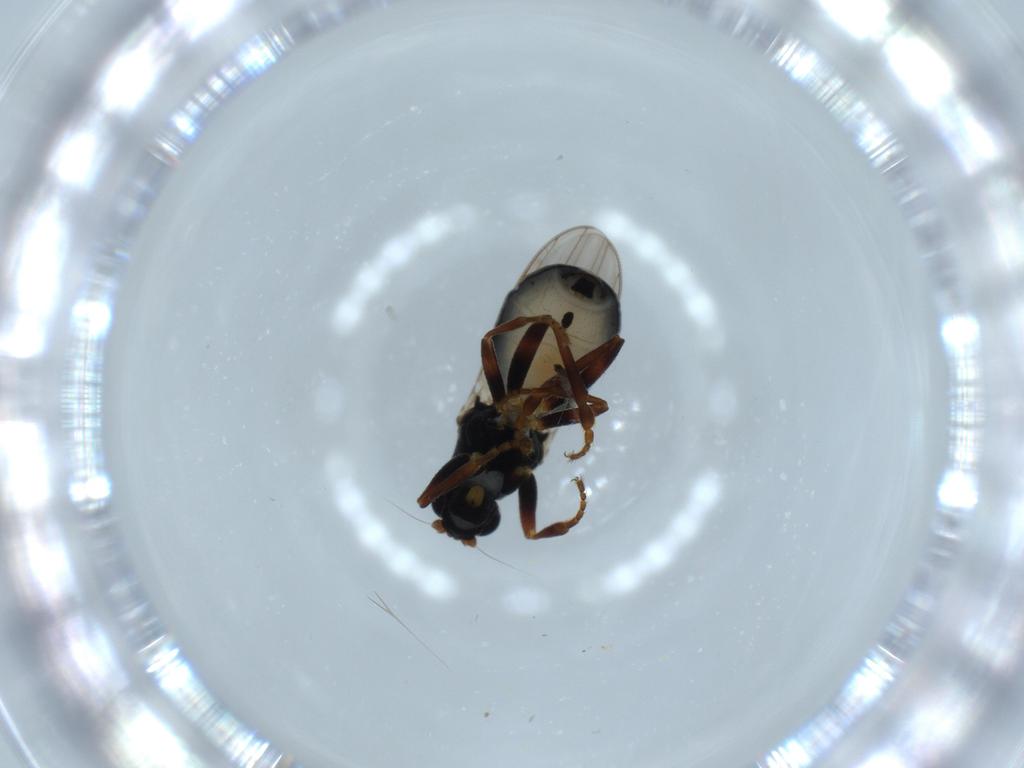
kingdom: Animalia
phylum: Arthropoda
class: Insecta
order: Diptera
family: Sphaeroceridae
